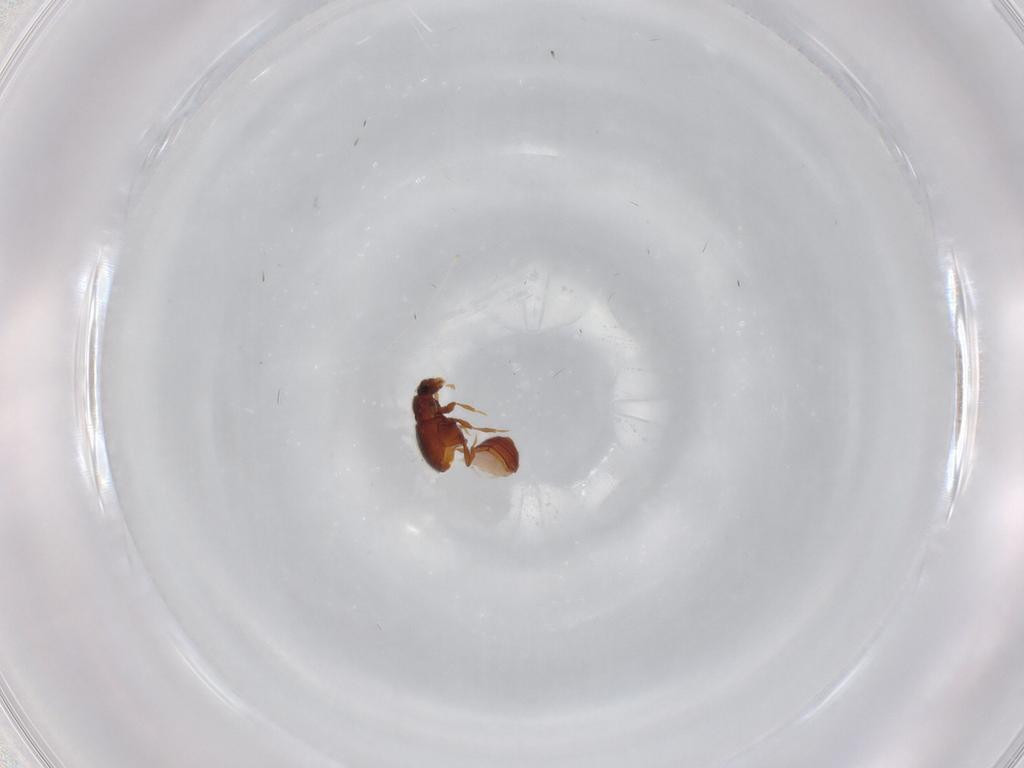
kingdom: Animalia
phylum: Arthropoda
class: Insecta
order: Coleoptera
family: Staphylinidae
